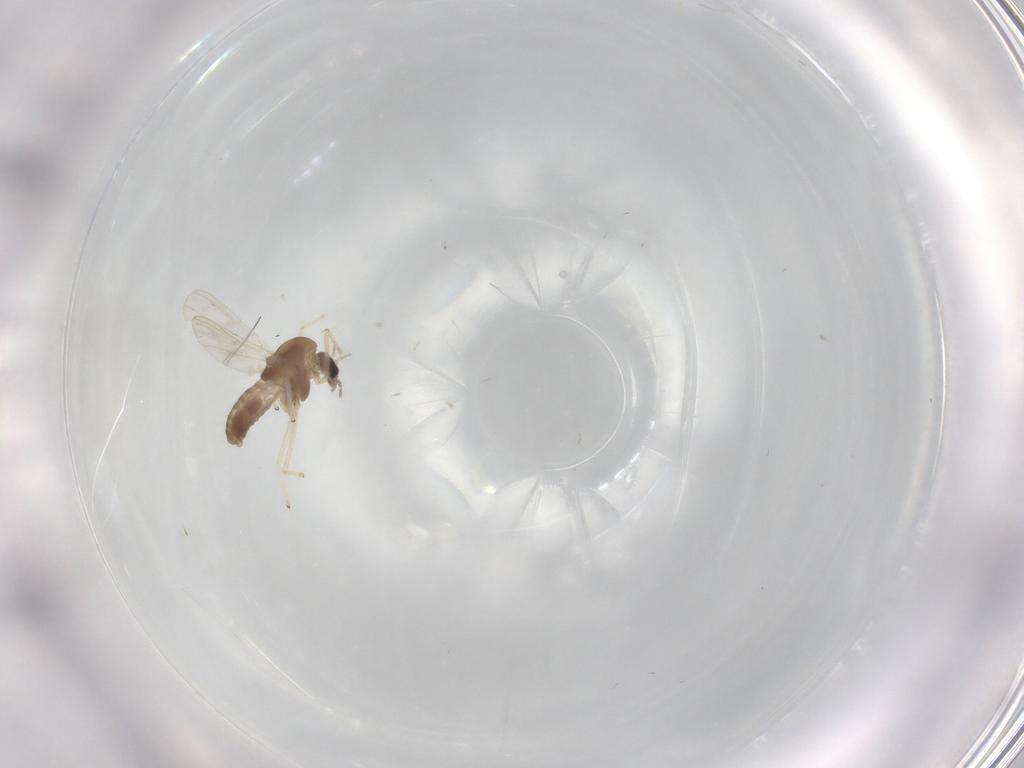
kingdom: Animalia
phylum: Arthropoda
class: Insecta
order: Diptera
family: Chironomidae
